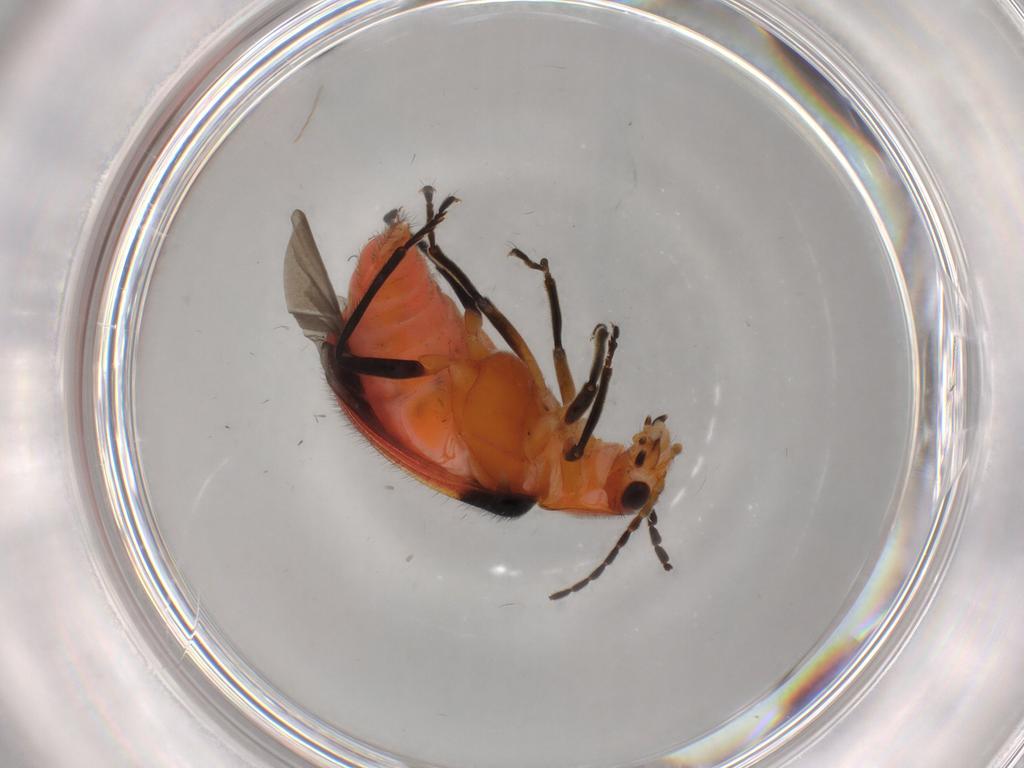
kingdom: Animalia
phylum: Arthropoda
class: Insecta
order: Coleoptera
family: Melyridae
